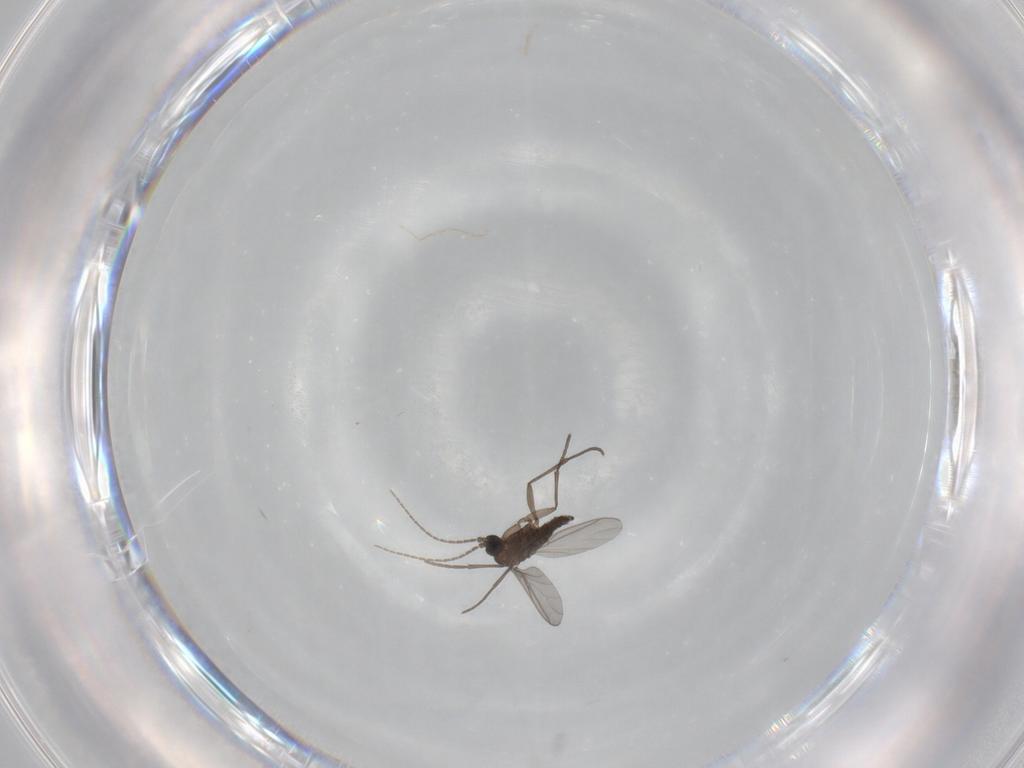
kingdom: Animalia
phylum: Arthropoda
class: Insecta
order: Diptera
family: Sciaridae
